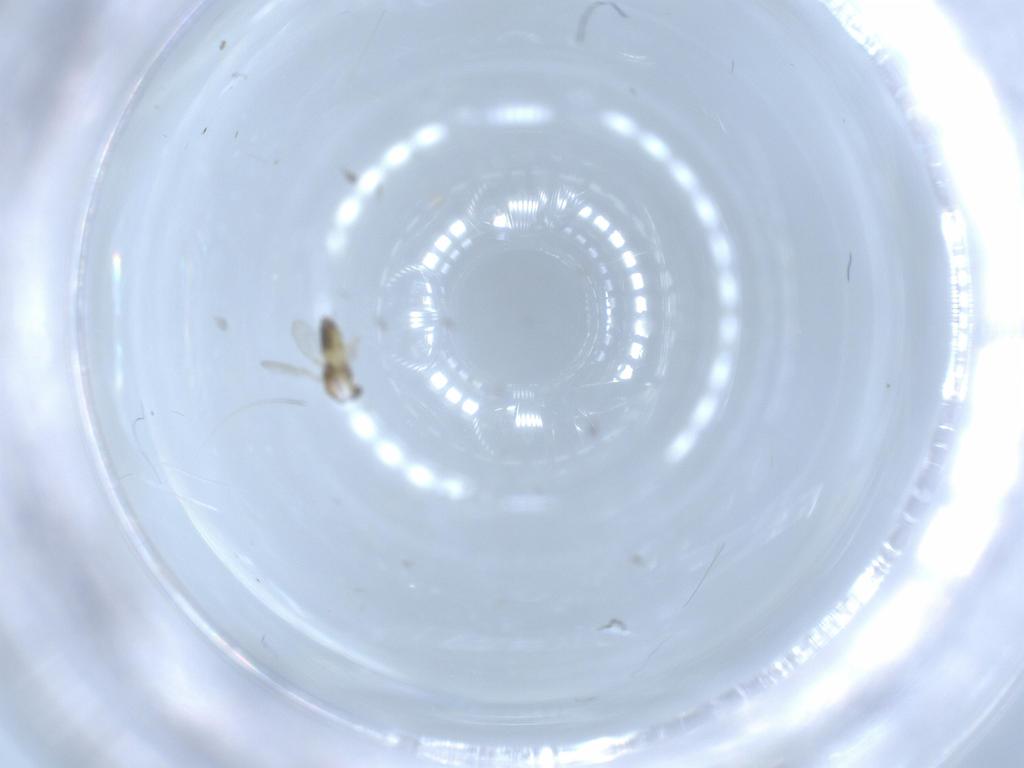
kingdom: Animalia
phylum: Arthropoda
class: Insecta
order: Diptera
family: Chironomidae
